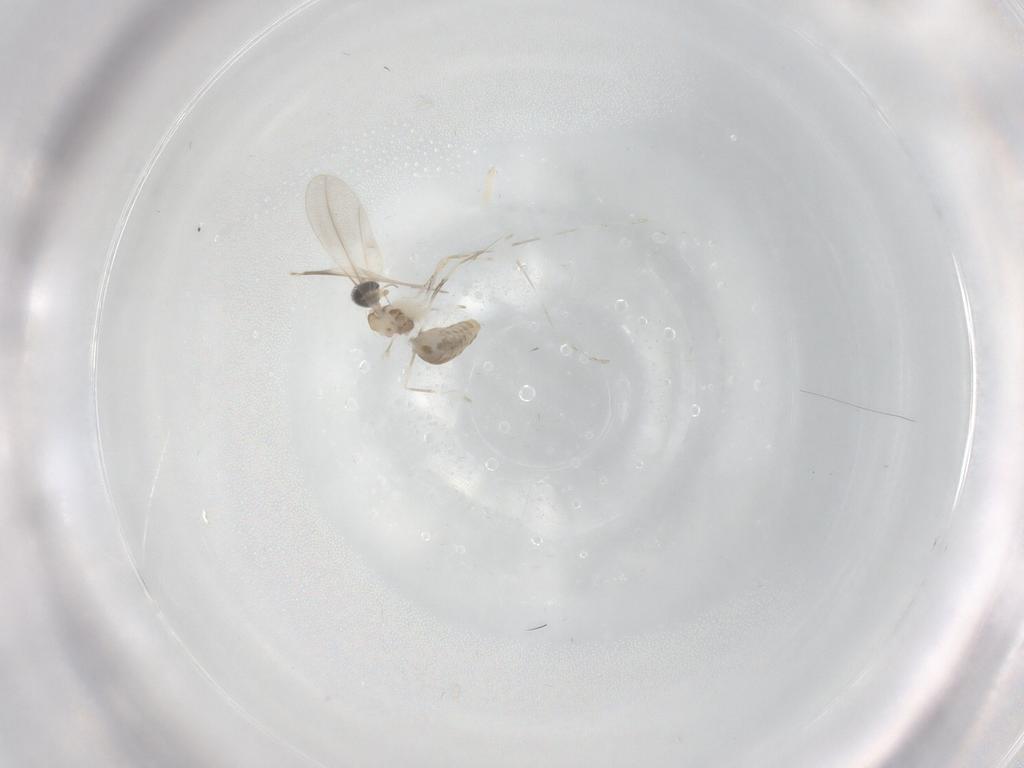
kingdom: Animalia
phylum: Arthropoda
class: Insecta
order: Diptera
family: Cecidomyiidae
